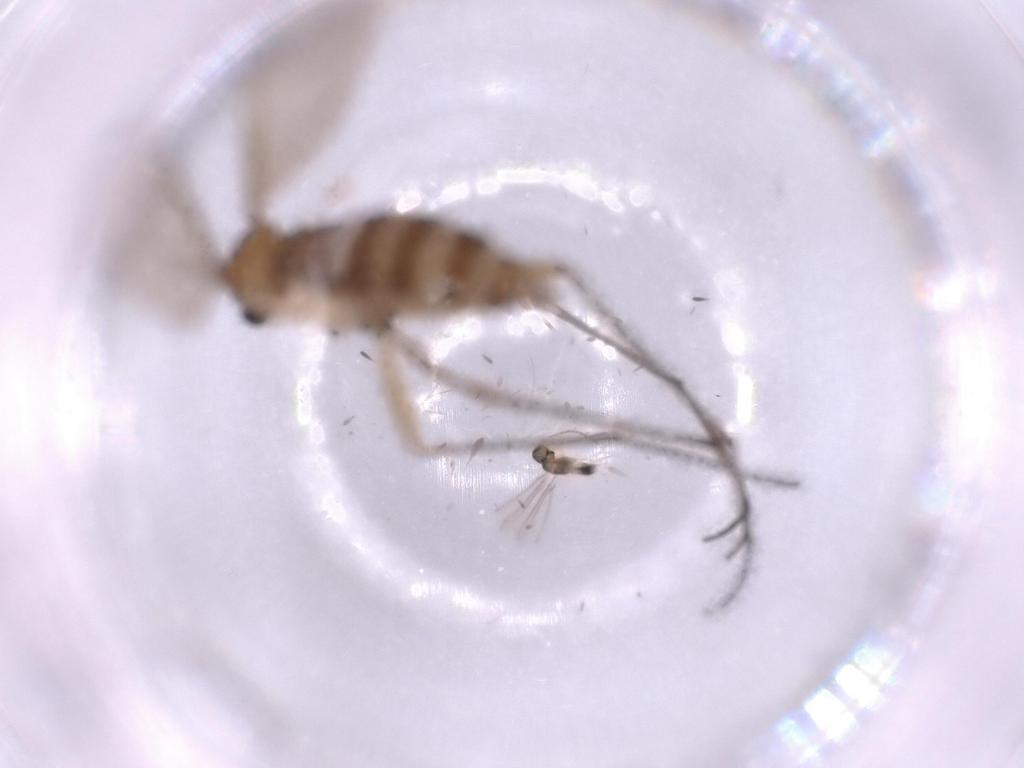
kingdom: Animalia
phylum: Arthropoda
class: Insecta
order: Diptera
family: Sciaridae
